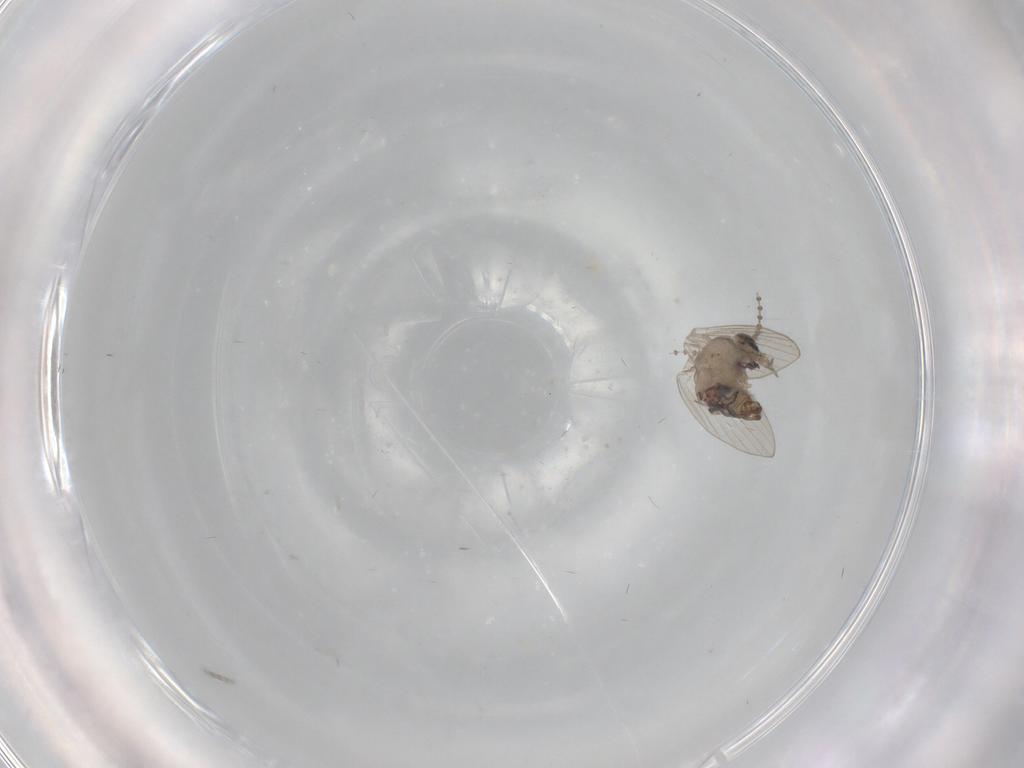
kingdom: Animalia
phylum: Arthropoda
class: Insecta
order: Diptera
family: Psychodidae
